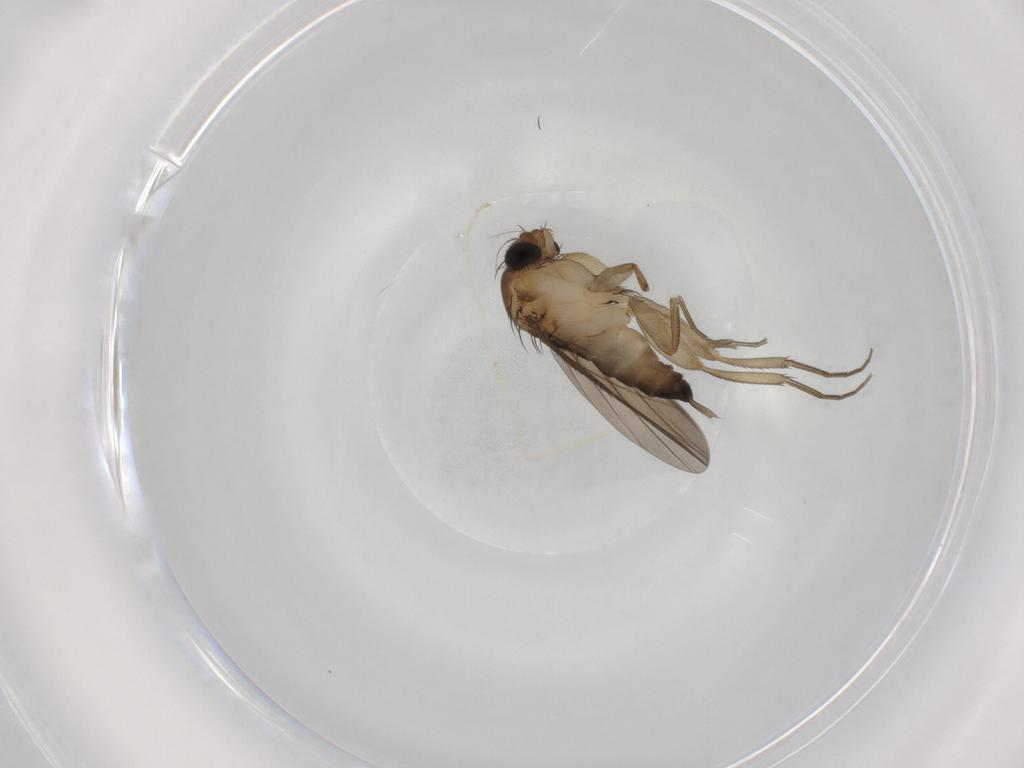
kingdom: Animalia
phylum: Arthropoda
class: Insecta
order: Diptera
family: Phoridae
